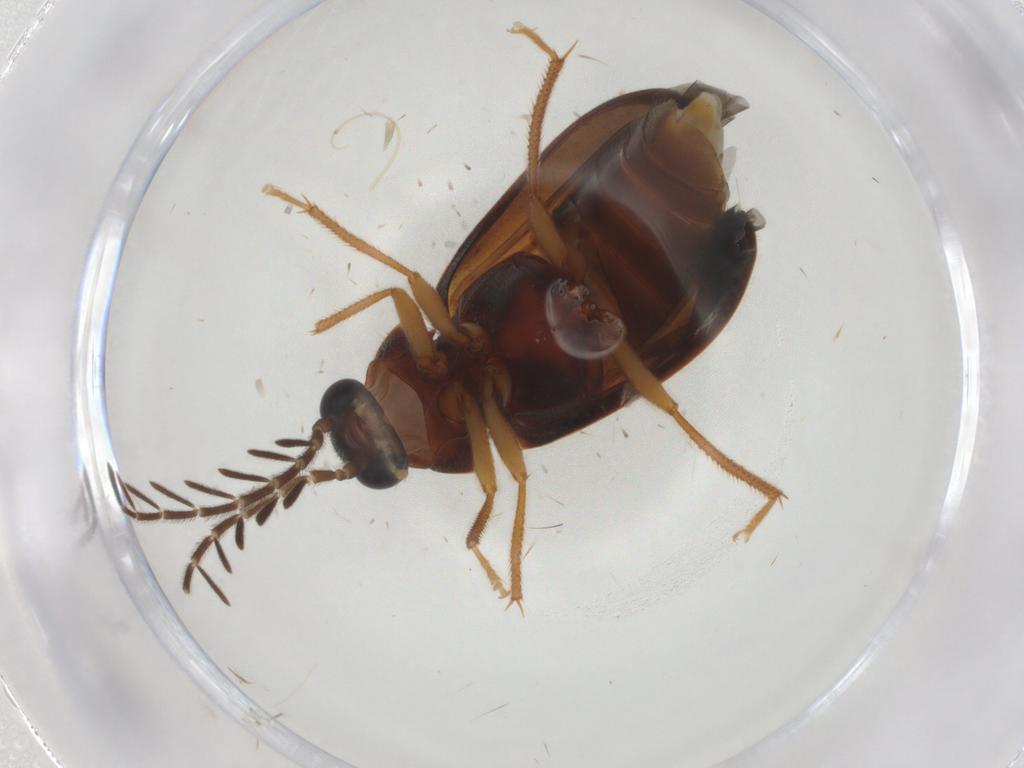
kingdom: Animalia
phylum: Arthropoda
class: Insecta
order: Coleoptera
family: Ptilodactylidae
